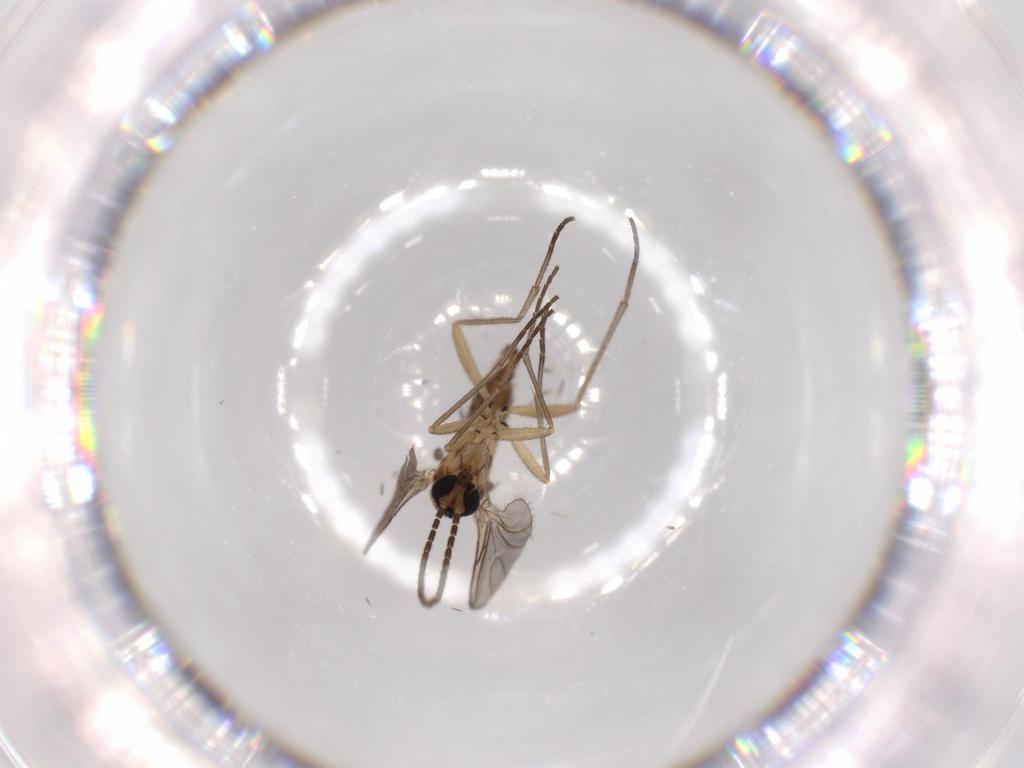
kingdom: Animalia
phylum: Arthropoda
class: Insecta
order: Diptera
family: Sciaridae
